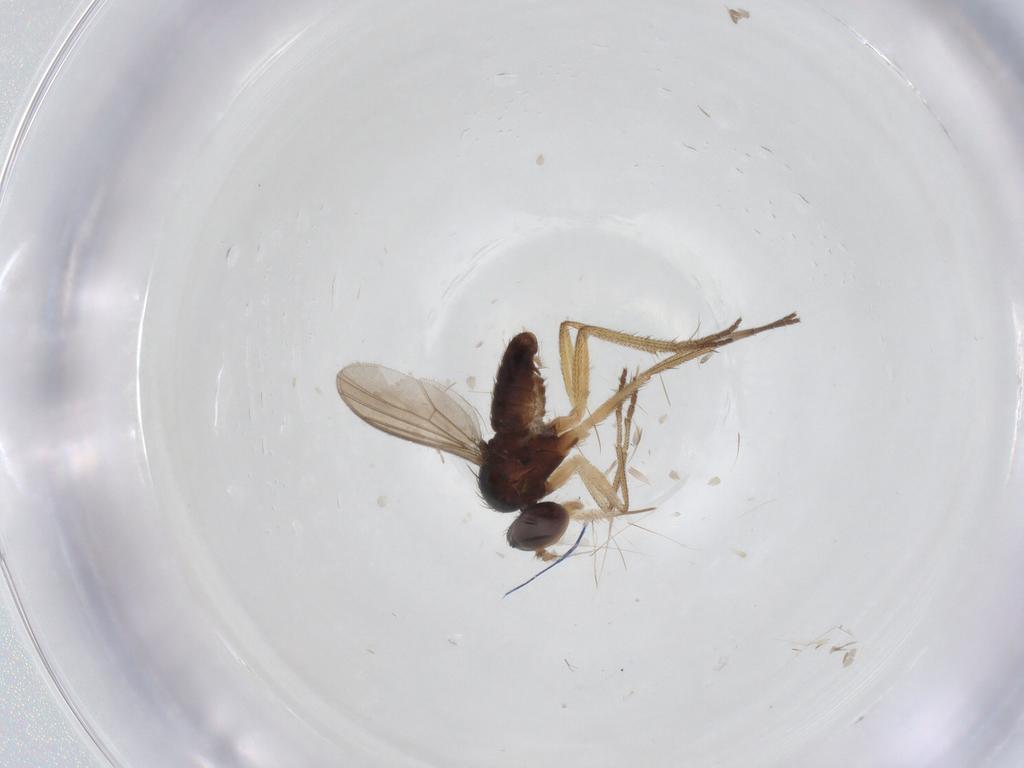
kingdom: Animalia
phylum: Arthropoda
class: Insecta
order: Diptera
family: Dolichopodidae
